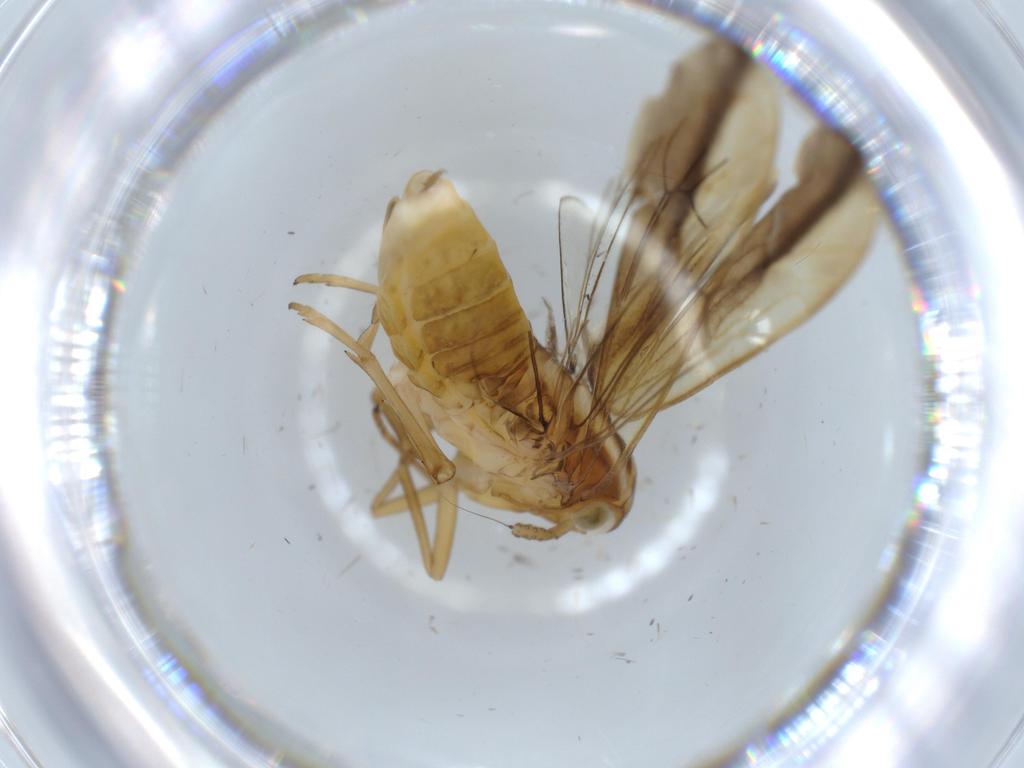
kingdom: Animalia
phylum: Arthropoda
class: Insecta
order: Hemiptera
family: Delphacidae
